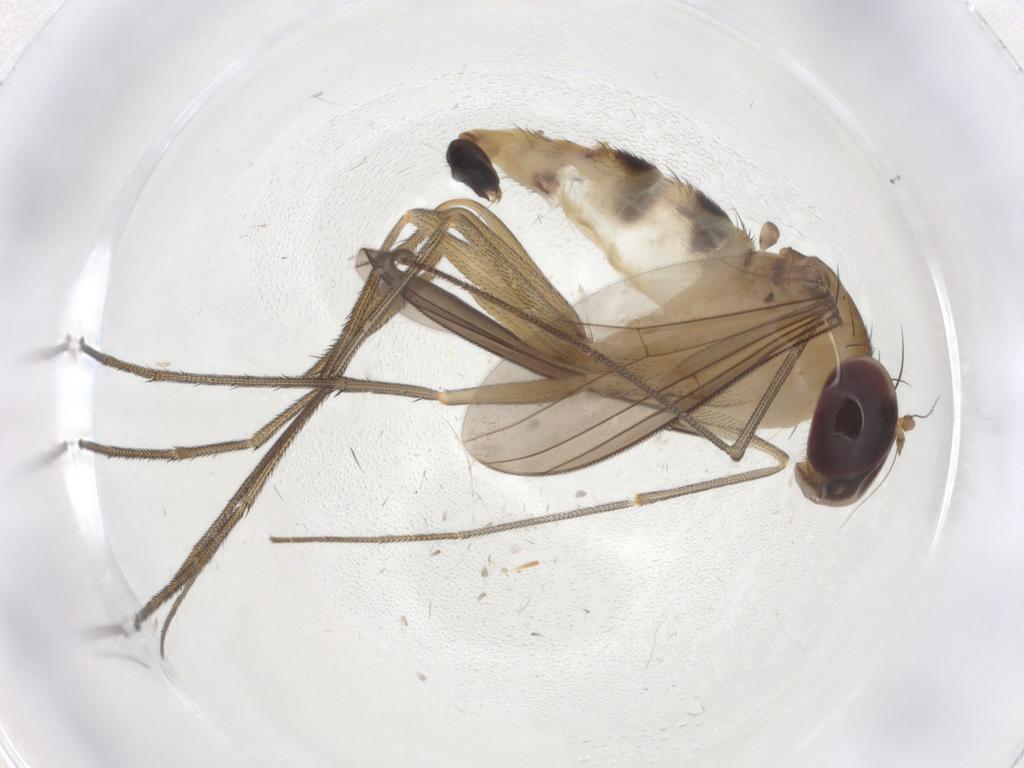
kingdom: Animalia
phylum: Arthropoda
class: Insecta
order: Diptera
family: Dolichopodidae
